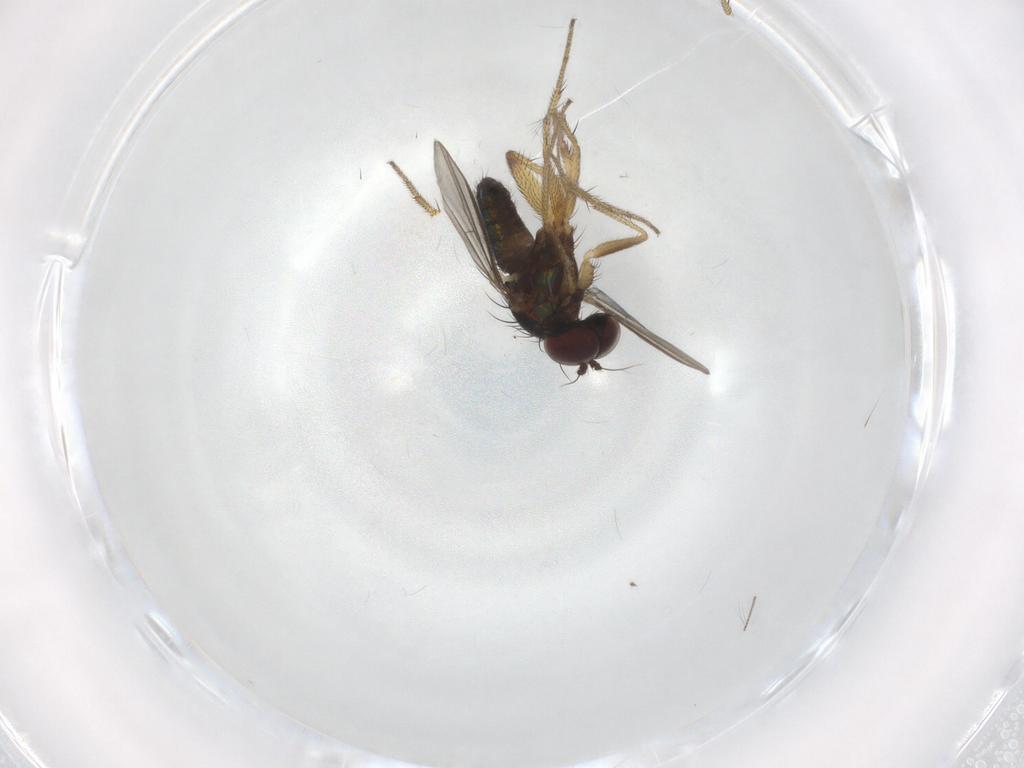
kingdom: Animalia
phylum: Arthropoda
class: Insecta
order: Diptera
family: Chironomidae
